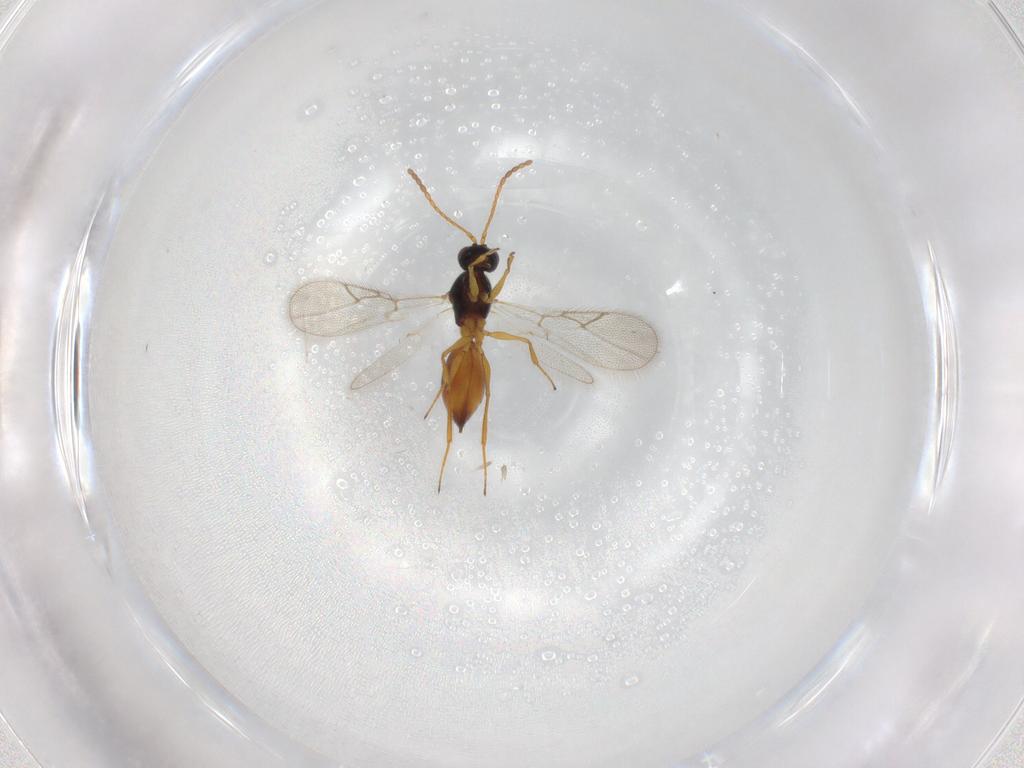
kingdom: Animalia
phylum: Arthropoda
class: Insecta
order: Hymenoptera
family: Figitidae
